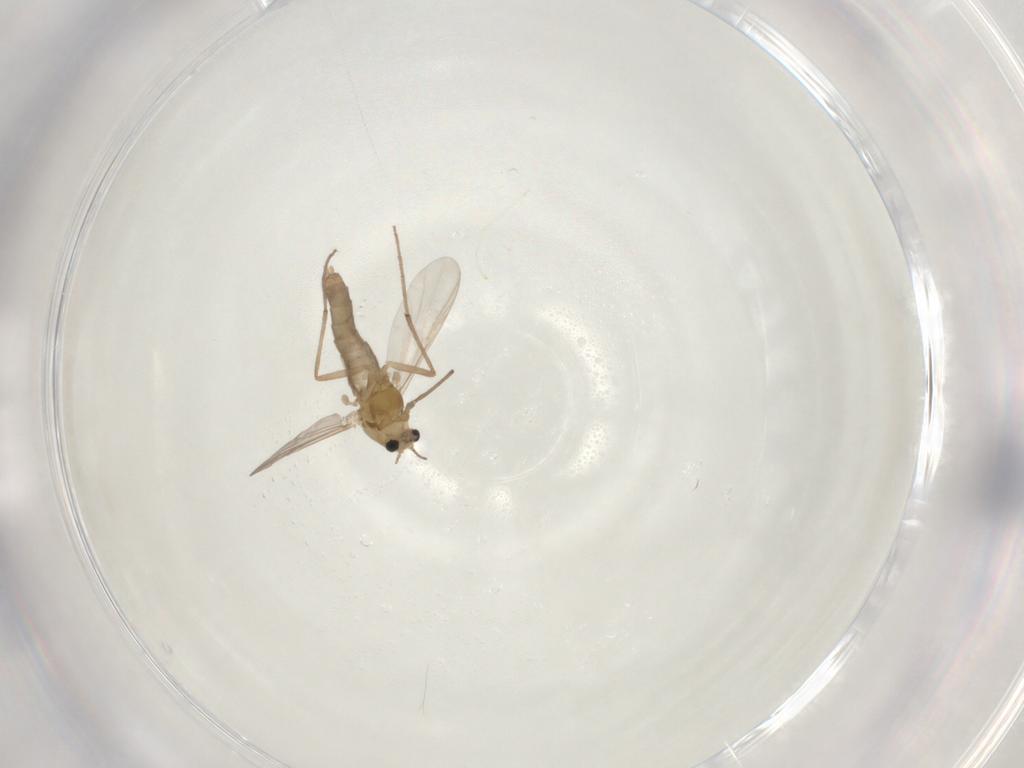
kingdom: Animalia
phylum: Arthropoda
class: Insecta
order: Diptera
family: Chironomidae
